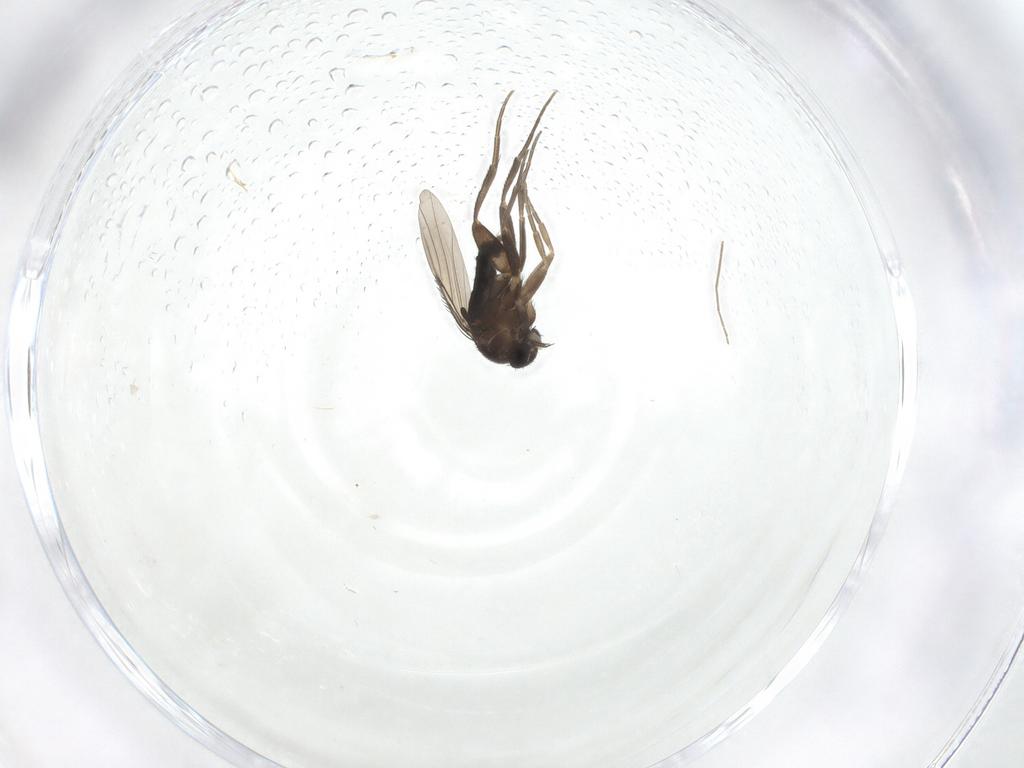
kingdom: Animalia
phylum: Arthropoda
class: Insecta
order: Diptera
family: Phoridae
